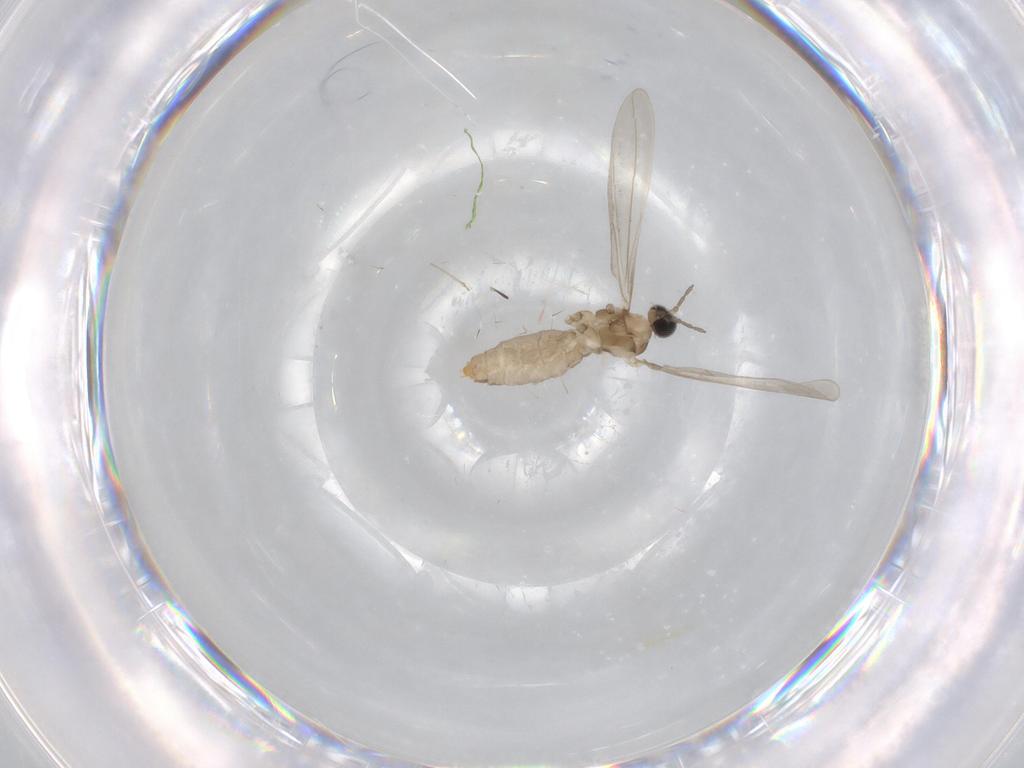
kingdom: Animalia
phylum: Arthropoda
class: Insecta
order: Diptera
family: Cecidomyiidae
